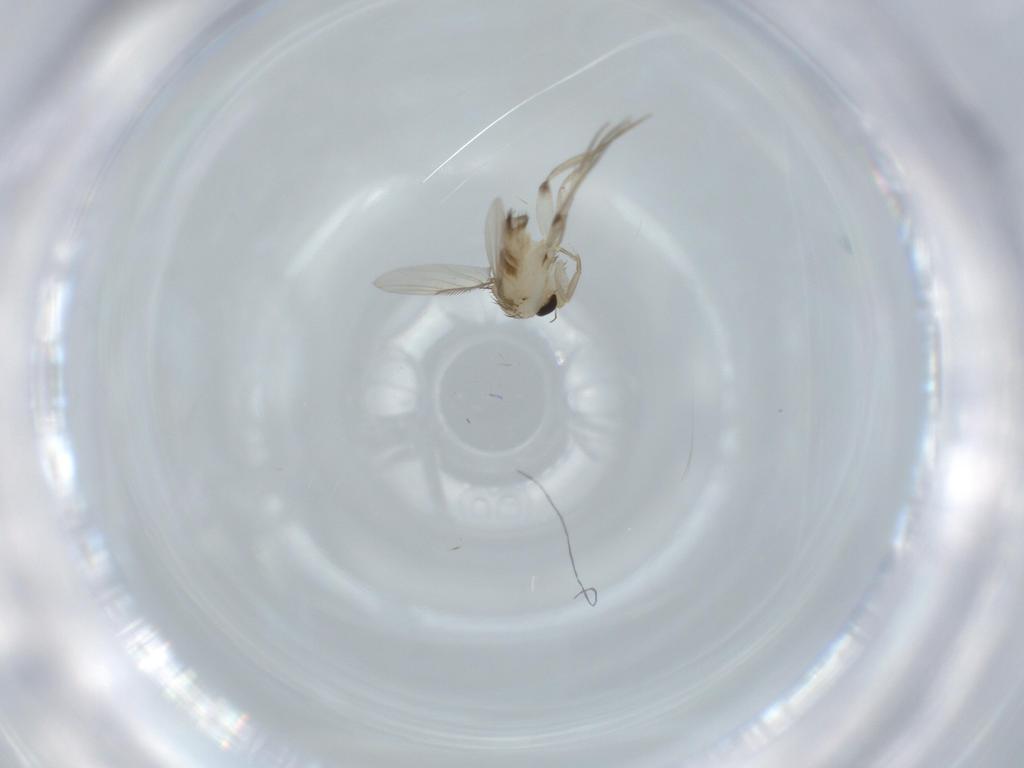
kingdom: Animalia
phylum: Arthropoda
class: Insecta
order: Diptera
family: Phoridae
